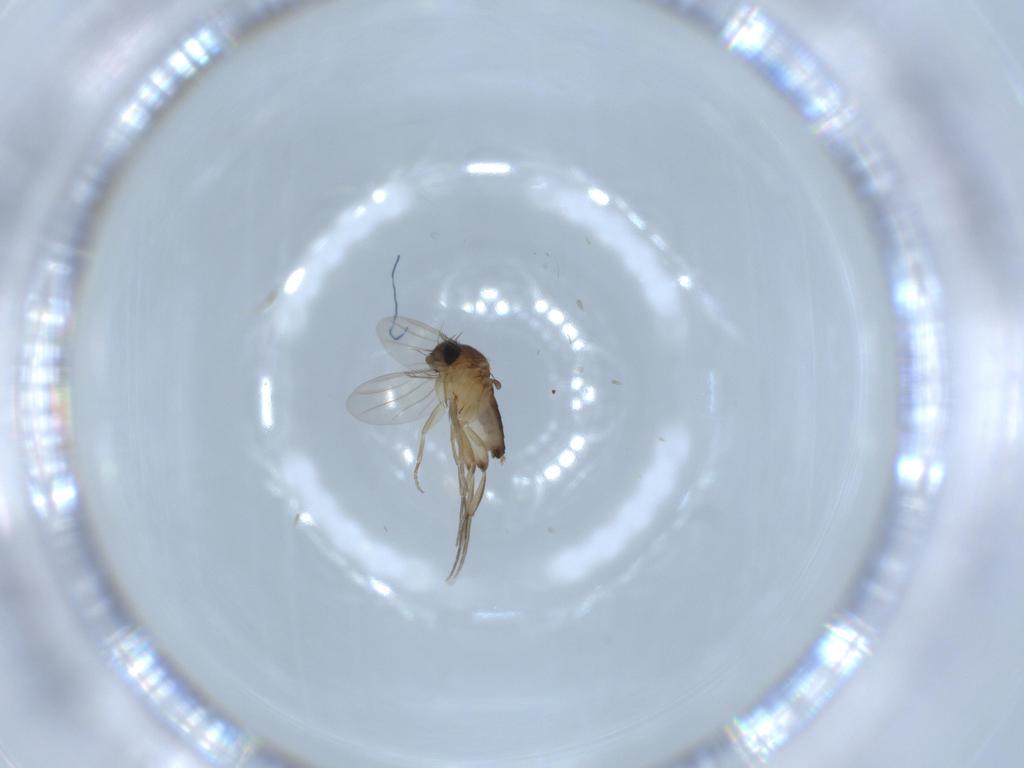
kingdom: Animalia
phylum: Arthropoda
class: Insecta
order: Diptera
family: Phoridae
